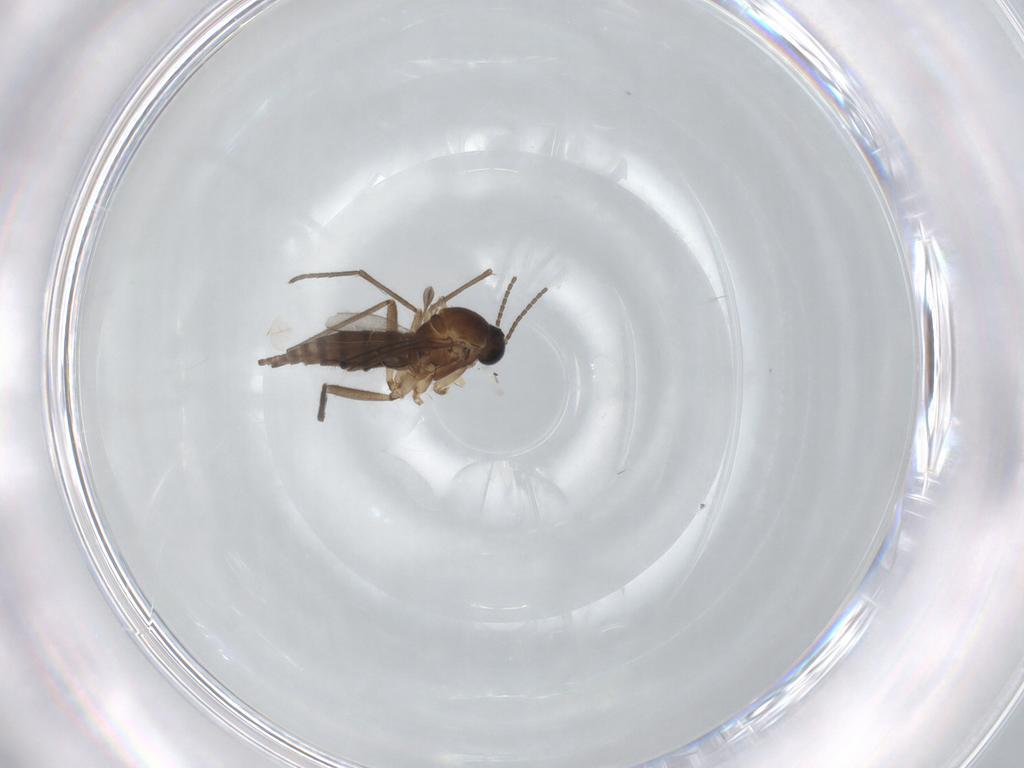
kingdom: Animalia
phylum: Arthropoda
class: Insecta
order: Diptera
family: Sciaridae
